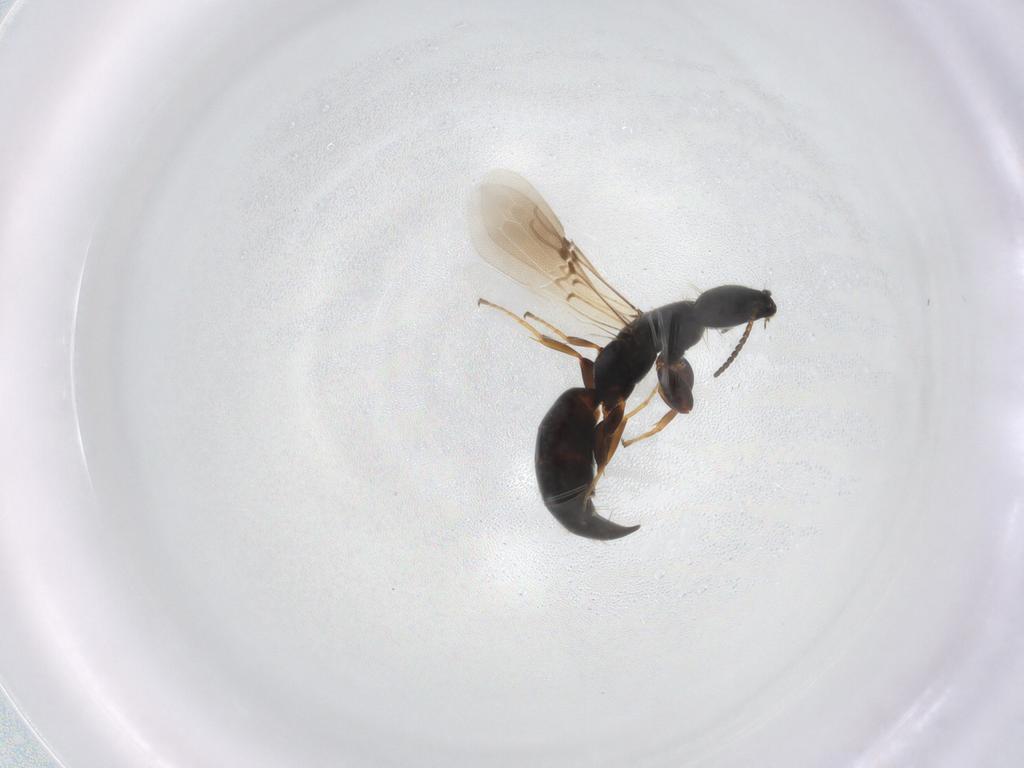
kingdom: Animalia
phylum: Arthropoda
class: Insecta
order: Hymenoptera
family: Bethylidae
